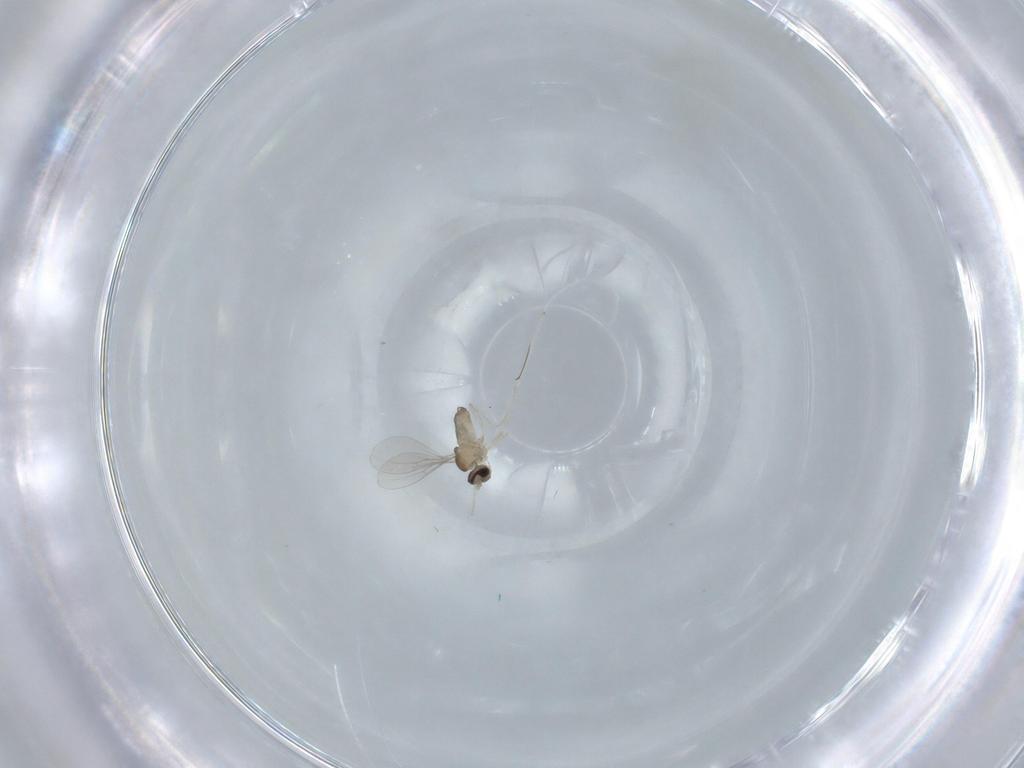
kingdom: Animalia
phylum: Arthropoda
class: Insecta
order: Diptera
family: Cecidomyiidae
